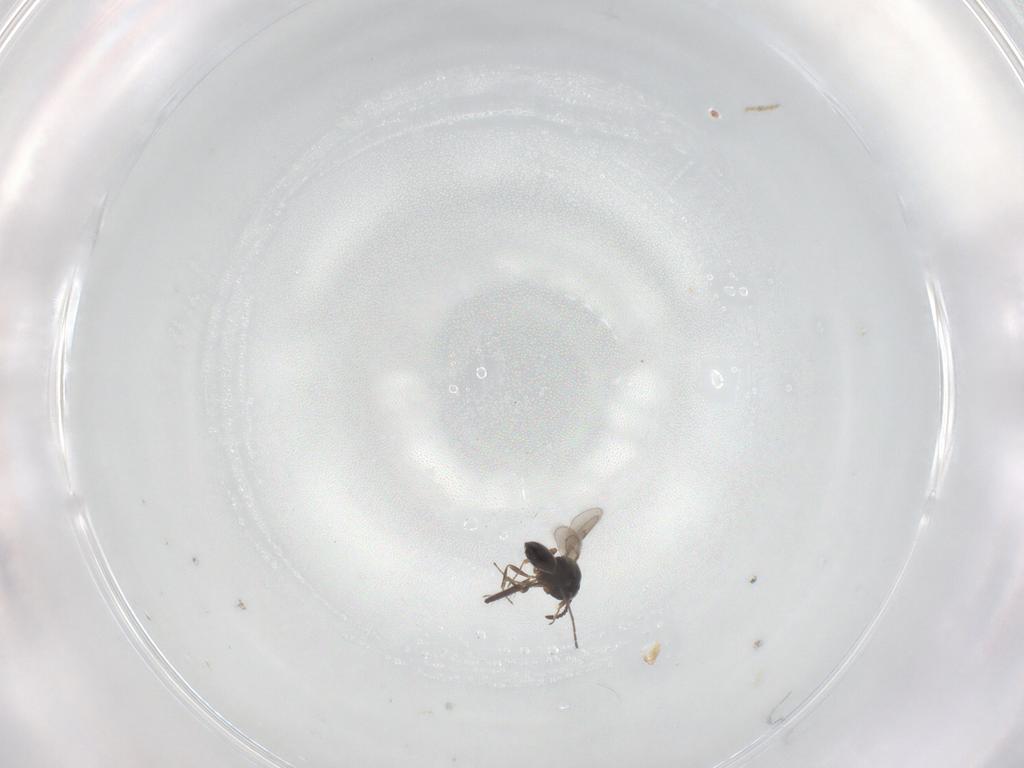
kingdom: Animalia
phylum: Arthropoda
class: Insecta
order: Hymenoptera
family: Scelionidae
